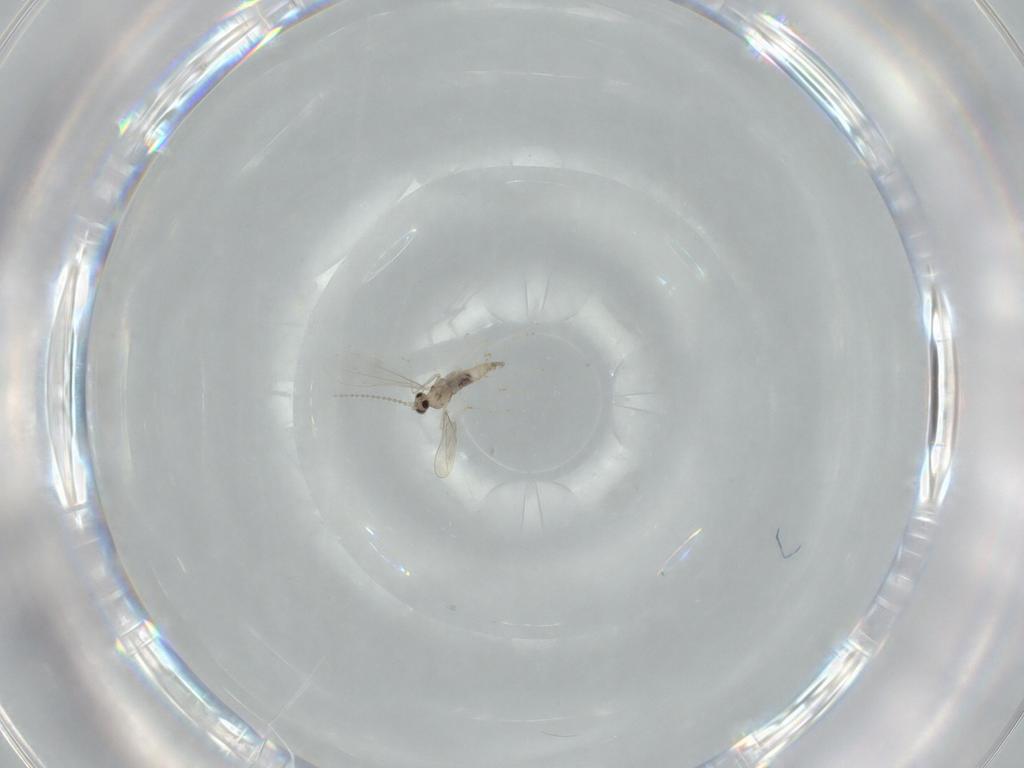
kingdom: Animalia
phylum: Arthropoda
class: Insecta
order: Diptera
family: Cecidomyiidae
